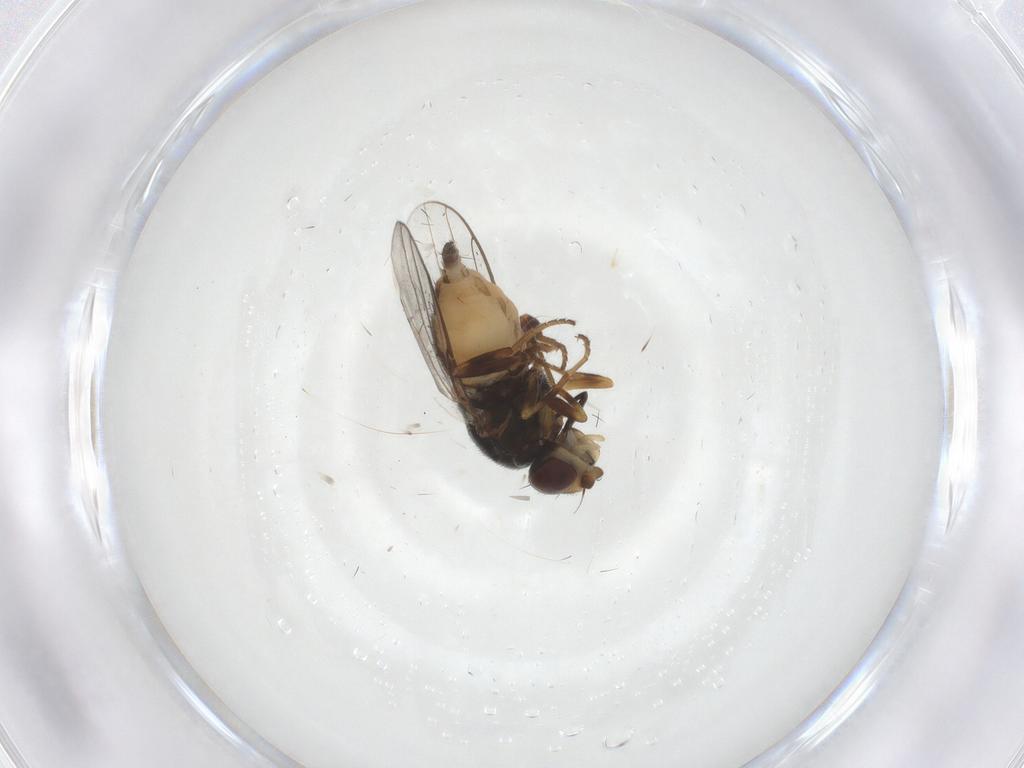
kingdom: Animalia
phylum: Arthropoda
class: Insecta
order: Diptera
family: Chloropidae
